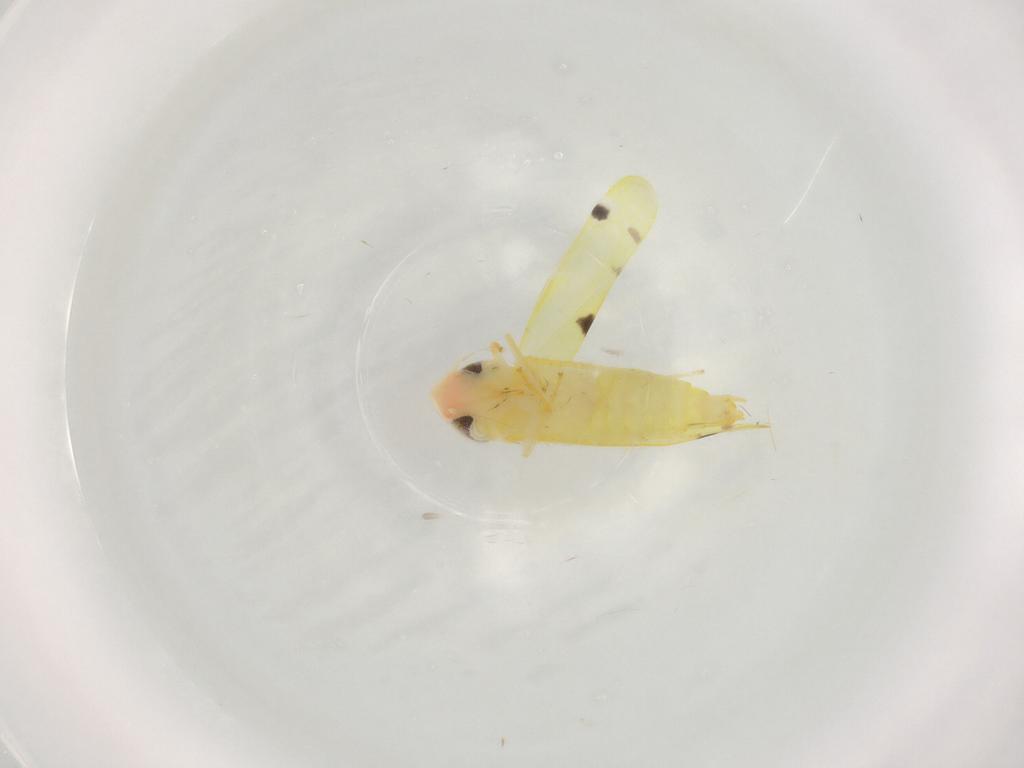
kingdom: Animalia
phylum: Arthropoda
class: Insecta
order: Hemiptera
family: Cicadellidae
